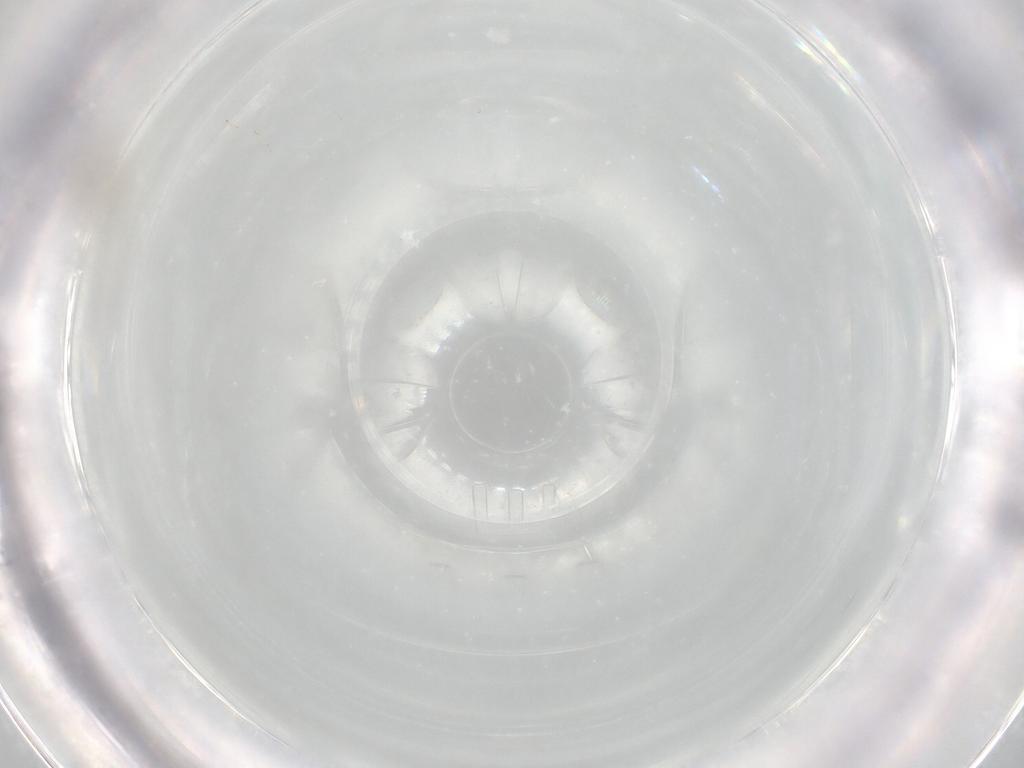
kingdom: Animalia
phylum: Arthropoda
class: Insecta
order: Diptera
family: Cecidomyiidae
